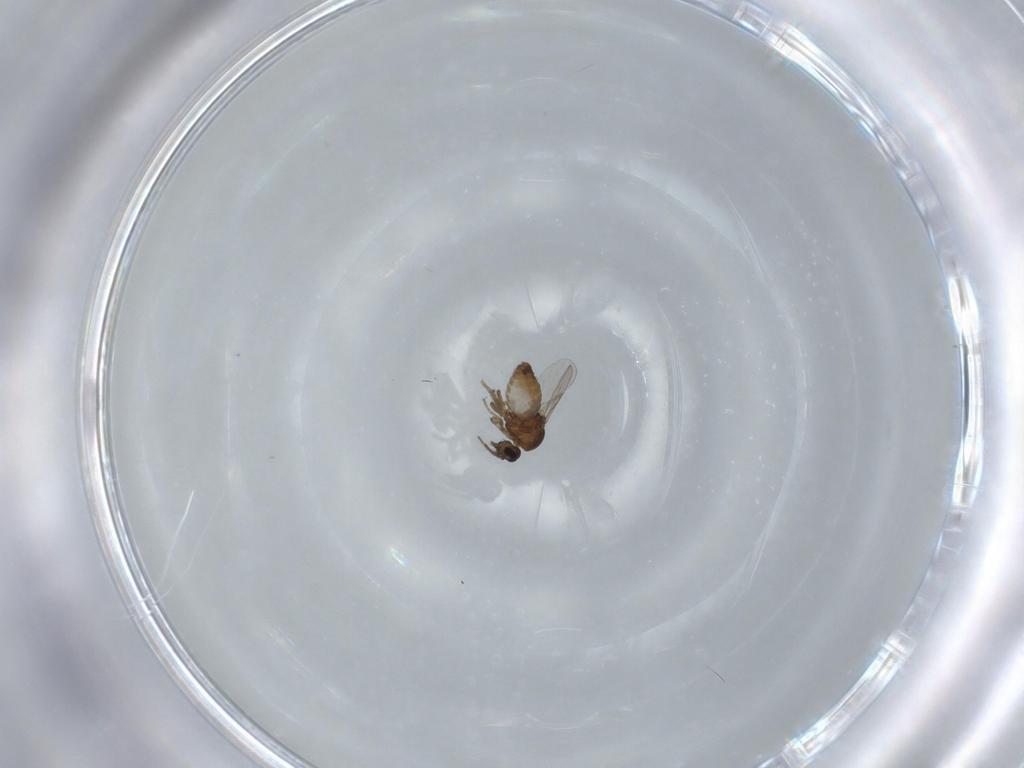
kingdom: Animalia
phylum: Arthropoda
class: Insecta
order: Diptera
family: Ceratopogonidae
